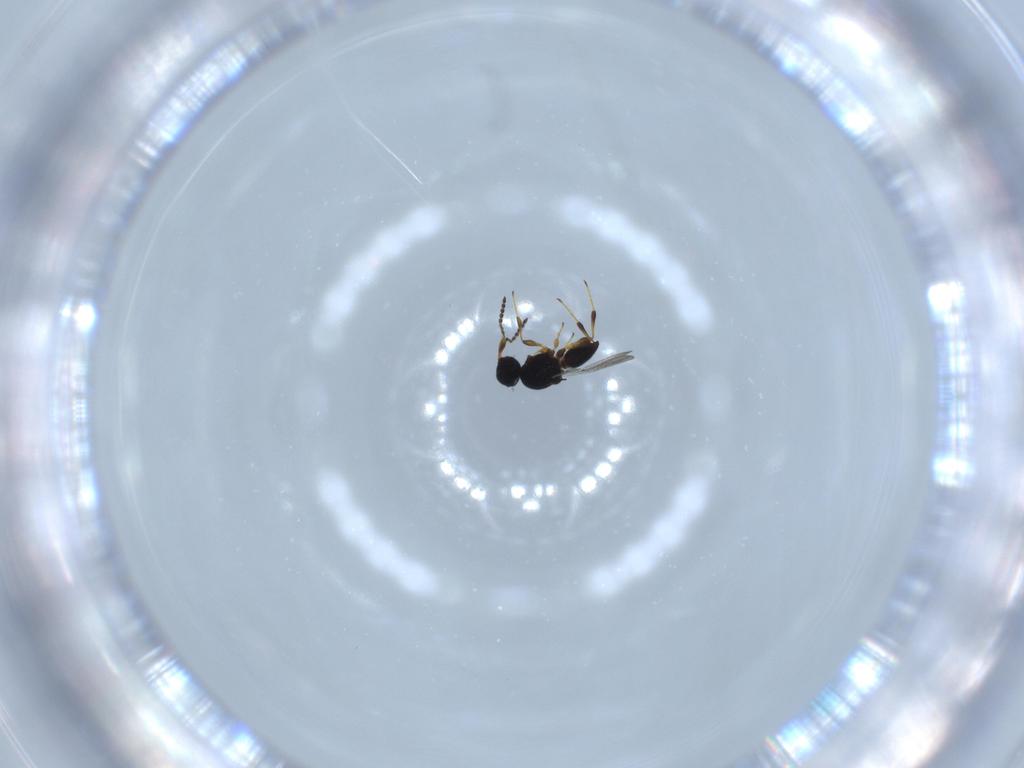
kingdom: Animalia
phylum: Arthropoda
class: Insecta
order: Hymenoptera
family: Platygastridae
